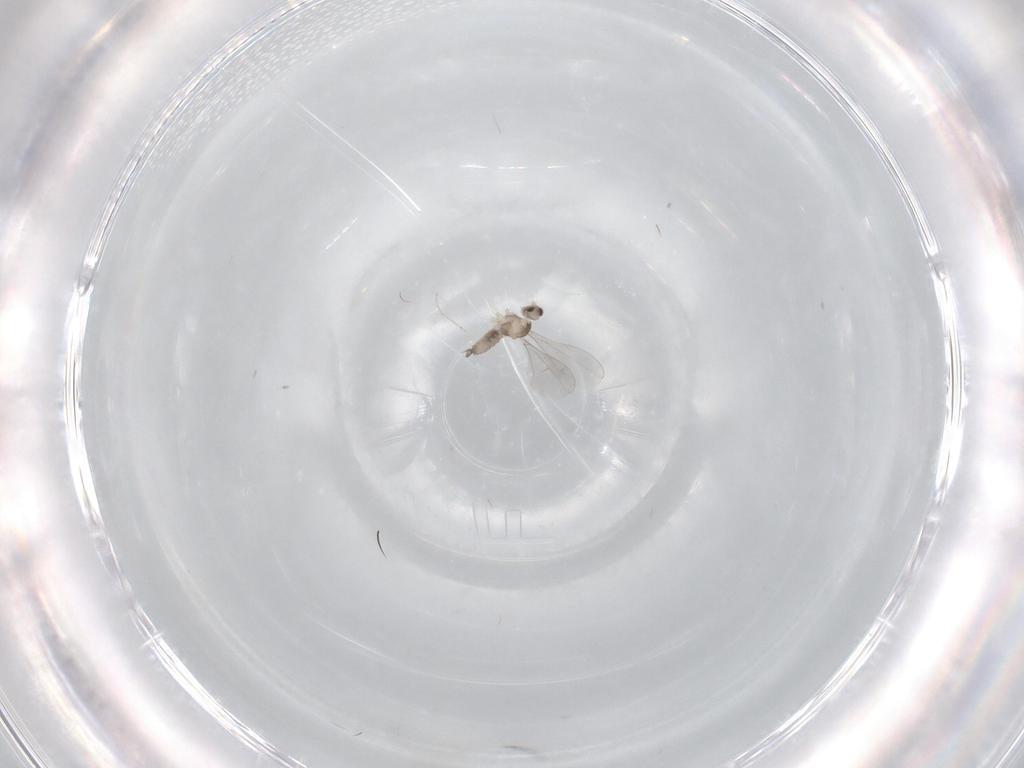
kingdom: Animalia
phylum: Arthropoda
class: Insecta
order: Diptera
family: Cecidomyiidae
